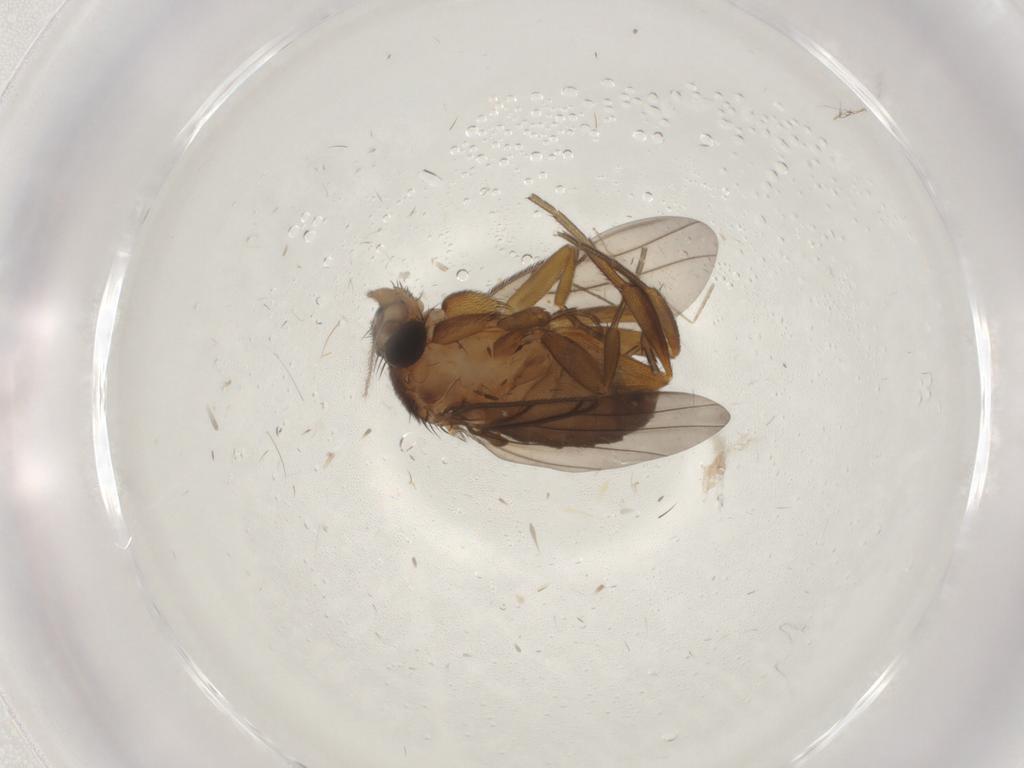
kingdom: Animalia
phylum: Arthropoda
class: Insecta
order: Diptera
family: Phoridae
